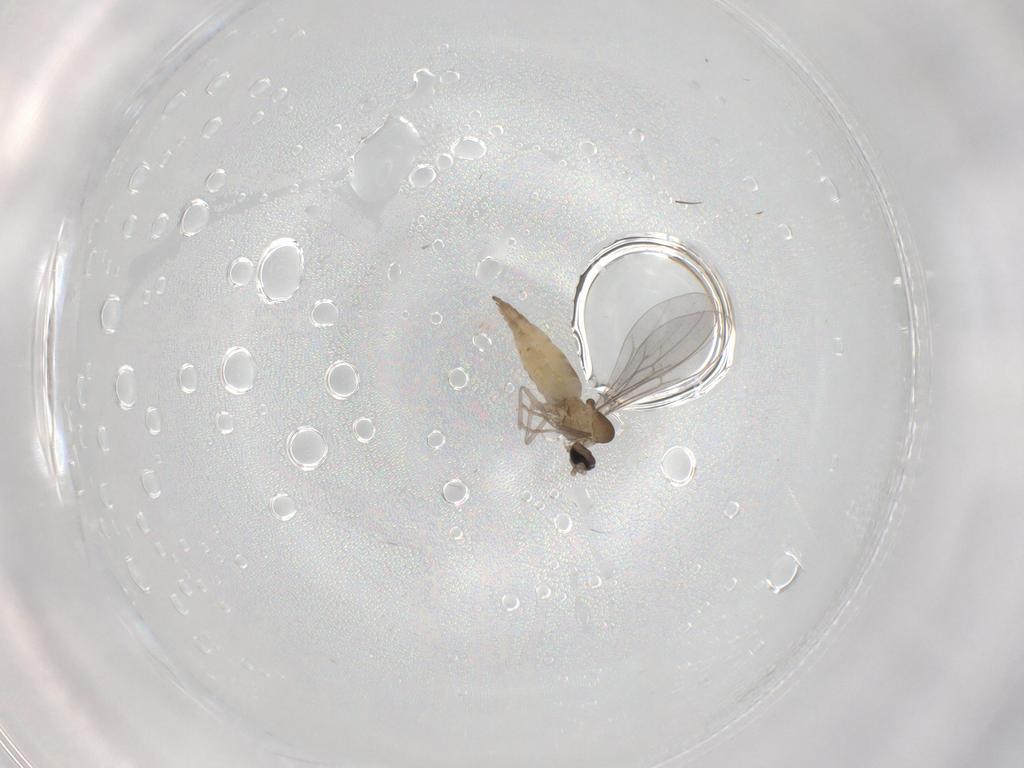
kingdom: Animalia
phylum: Arthropoda
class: Insecta
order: Diptera
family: Cecidomyiidae
